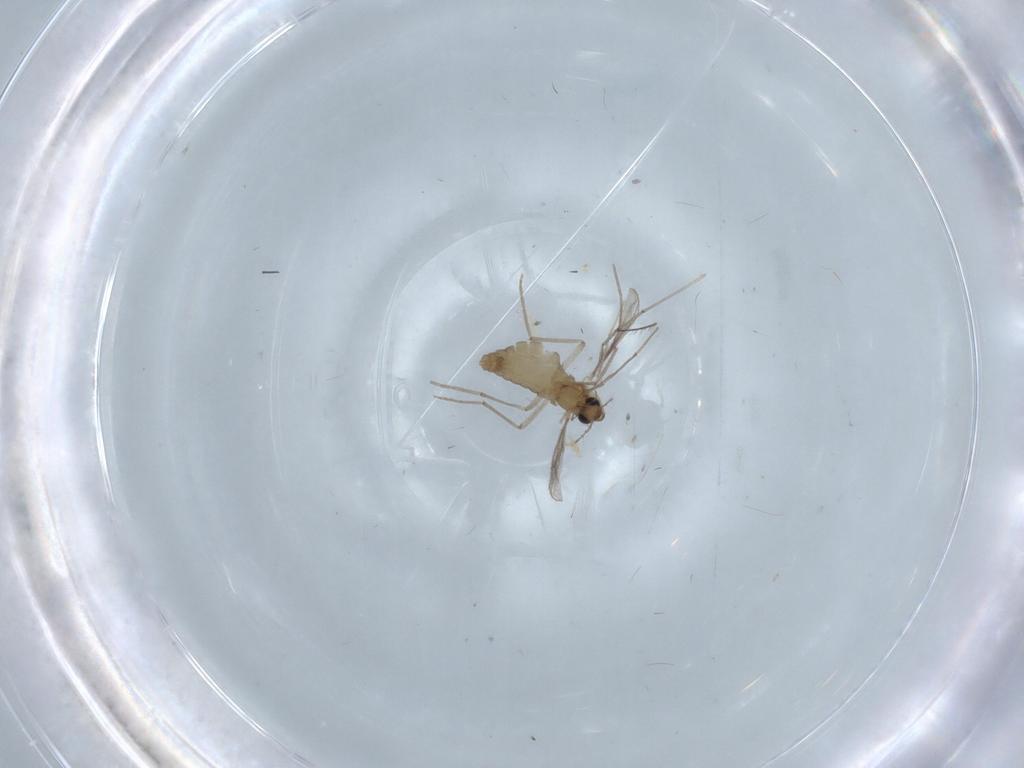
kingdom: Animalia
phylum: Arthropoda
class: Insecta
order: Diptera
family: Chironomidae
